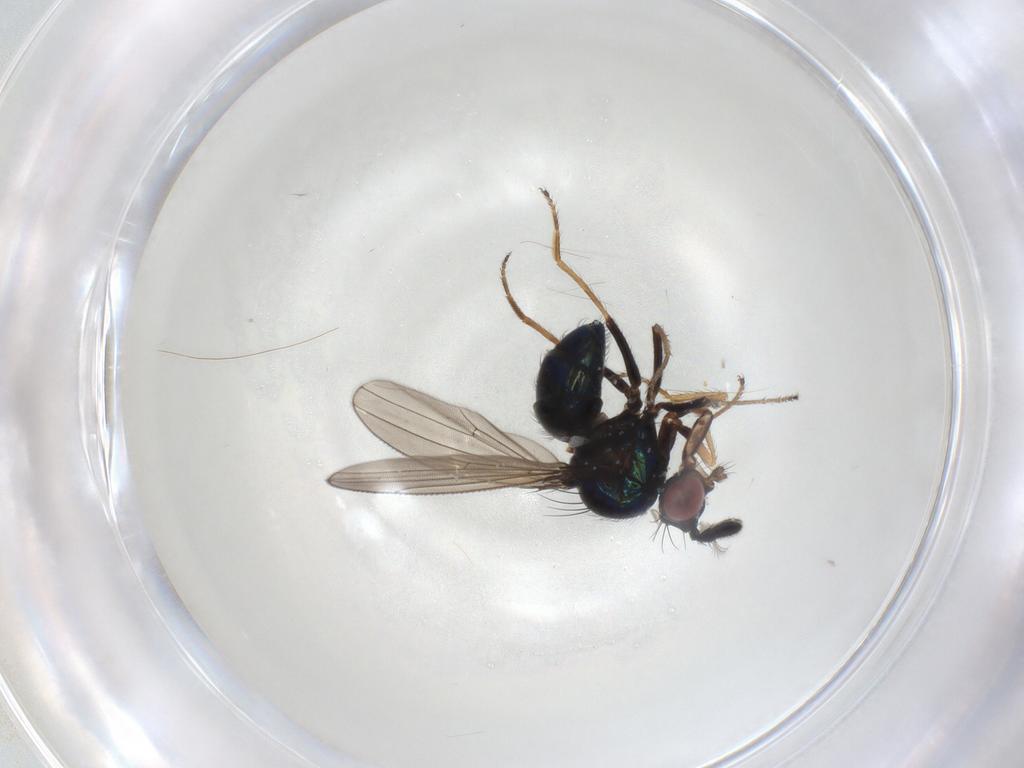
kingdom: Animalia
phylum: Arthropoda
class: Insecta
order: Diptera
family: Ephydridae
